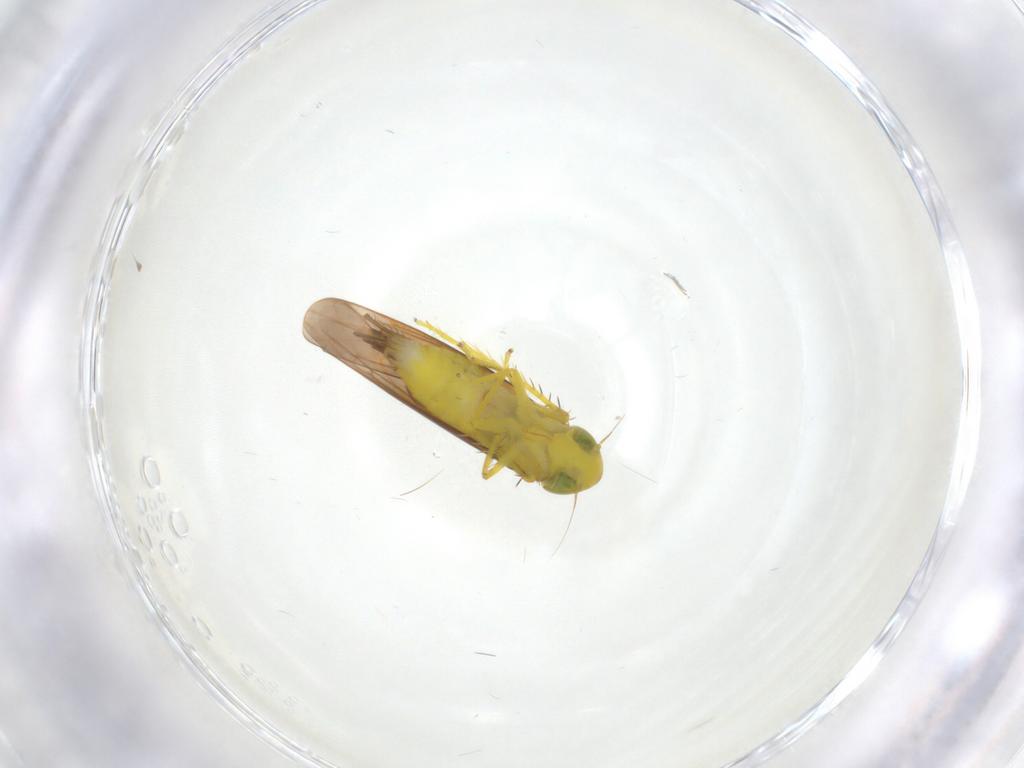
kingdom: Animalia
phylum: Arthropoda
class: Insecta
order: Hemiptera
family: Cicadellidae
